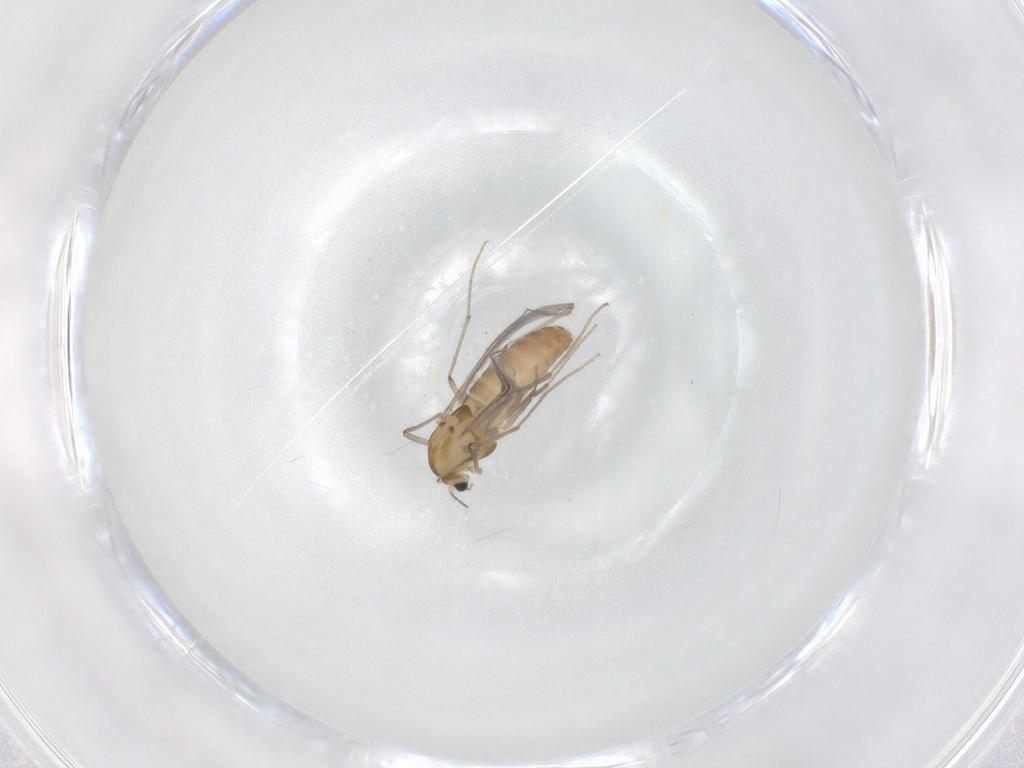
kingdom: Animalia
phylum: Arthropoda
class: Insecta
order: Diptera
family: Chironomidae
